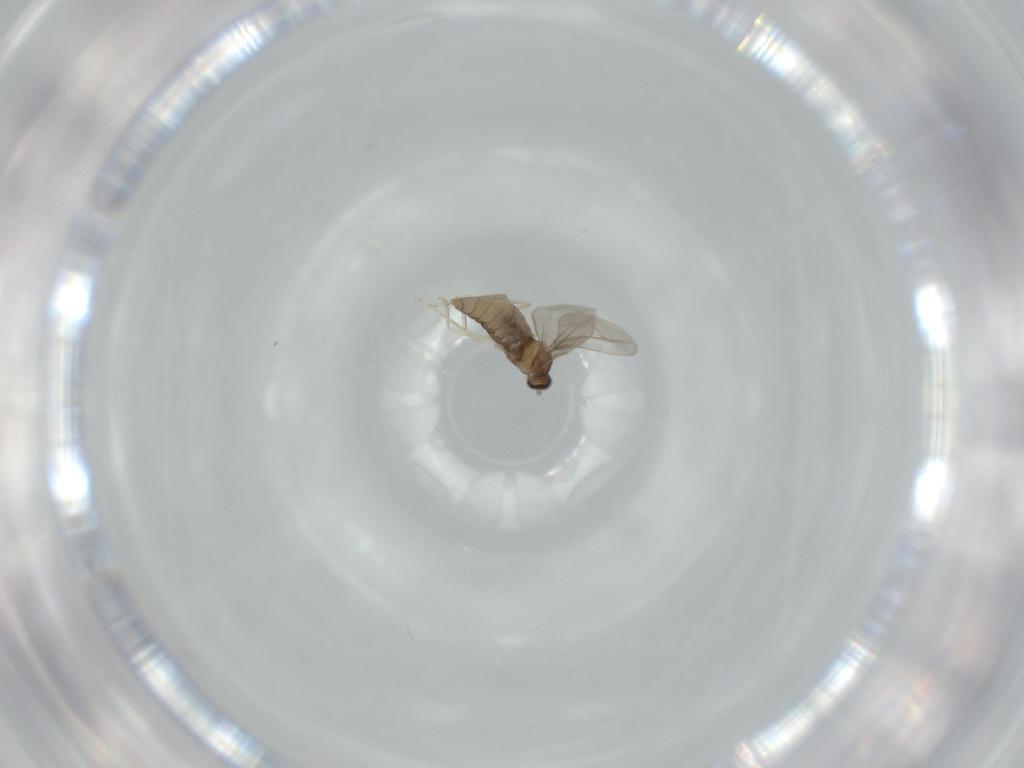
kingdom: Animalia
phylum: Arthropoda
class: Insecta
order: Diptera
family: Cecidomyiidae
